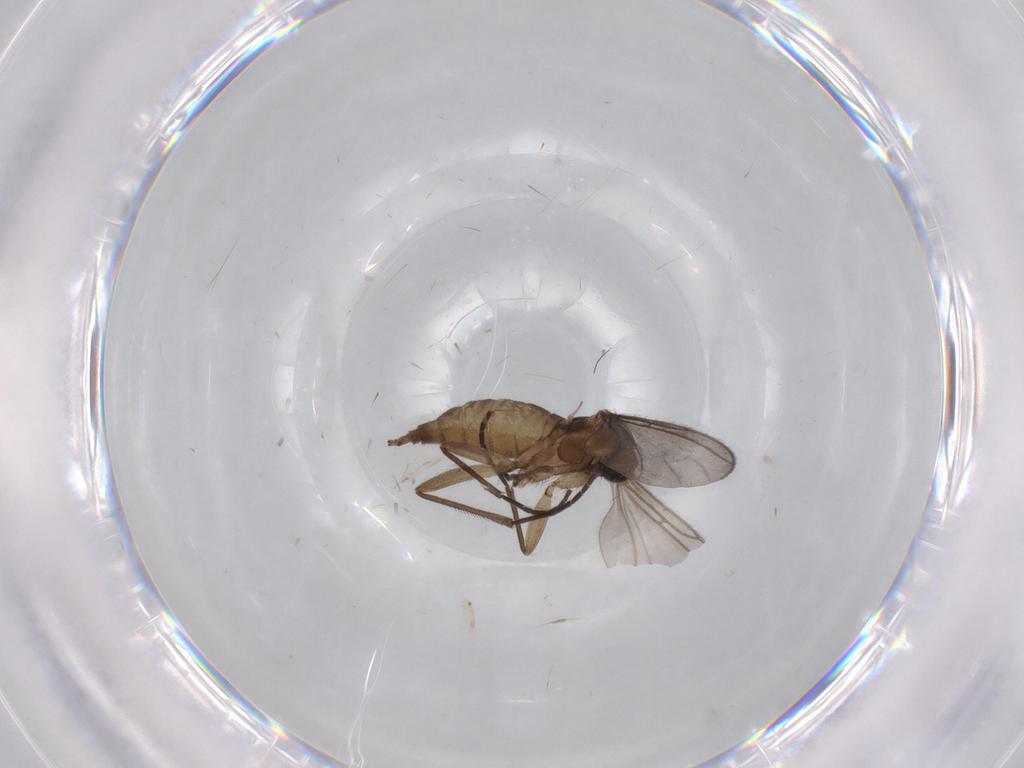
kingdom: Animalia
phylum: Arthropoda
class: Insecta
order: Diptera
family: Sciaridae
